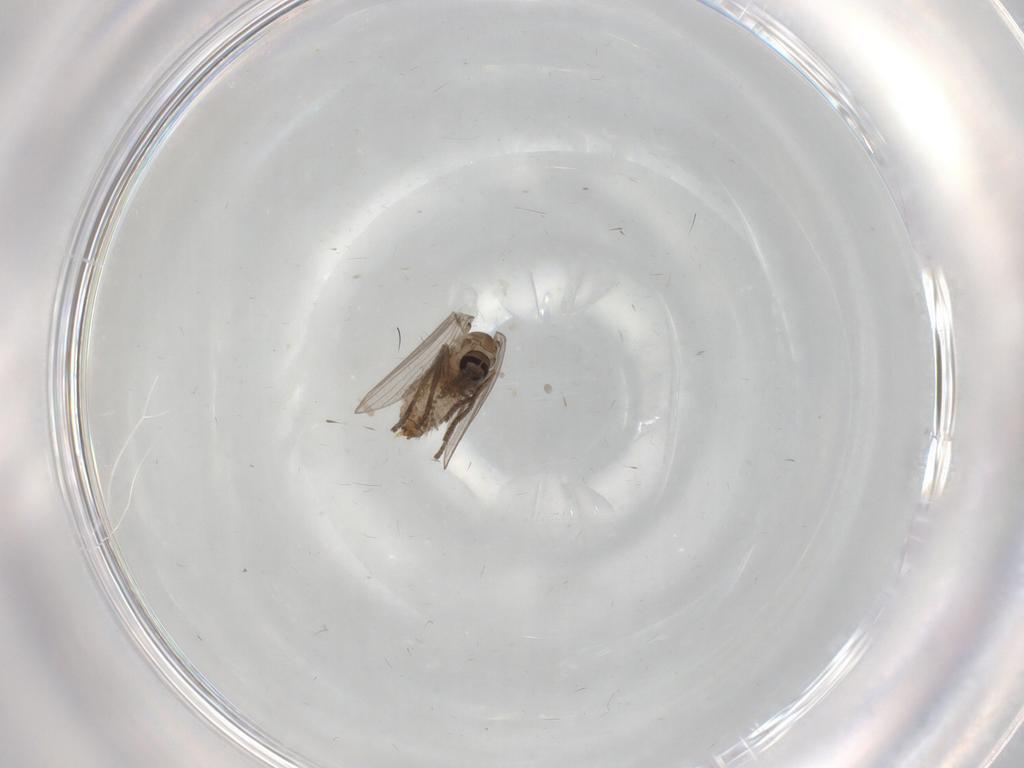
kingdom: Animalia
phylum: Arthropoda
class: Insecta
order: Diptera
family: Psychodidae
